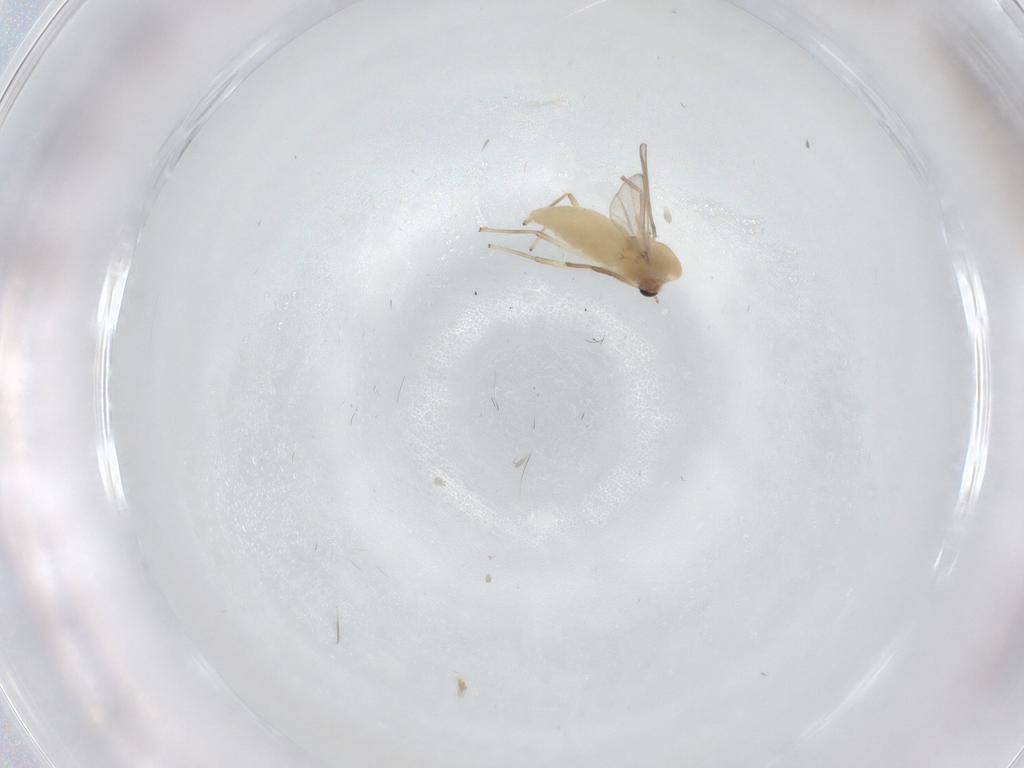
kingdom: Animalia
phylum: Arthropoda
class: Insecta
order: Diptera
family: Chironomidae
